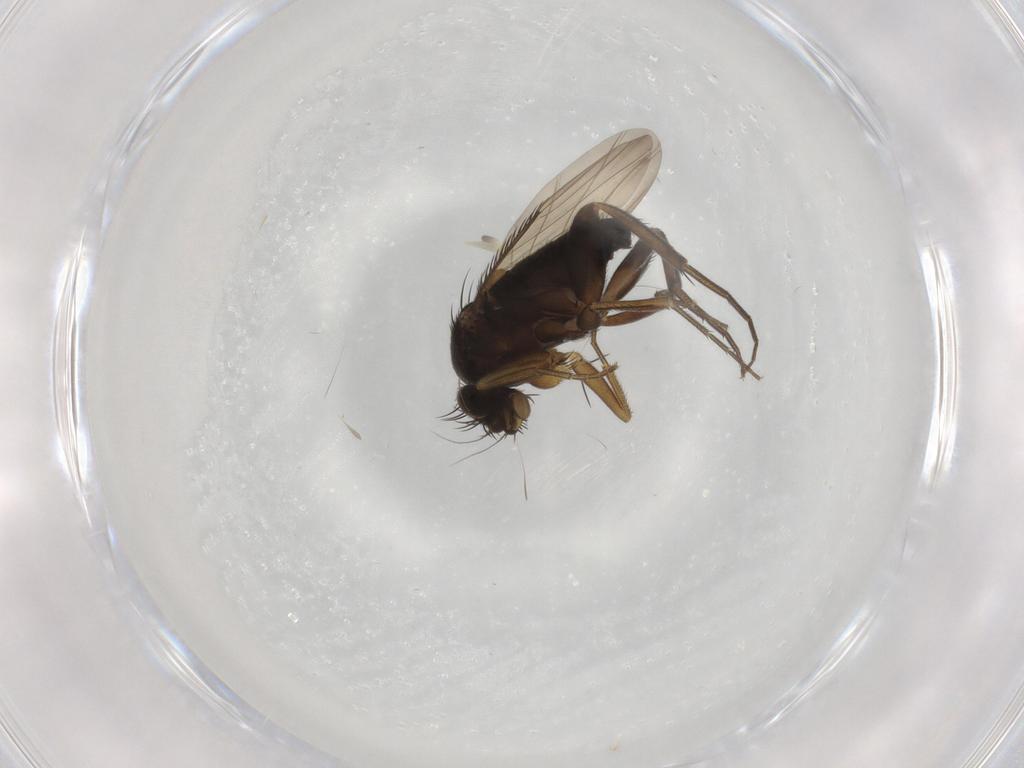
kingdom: Animalia
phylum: Arthropoda
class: Insecta
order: Diptera
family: Phoridae
